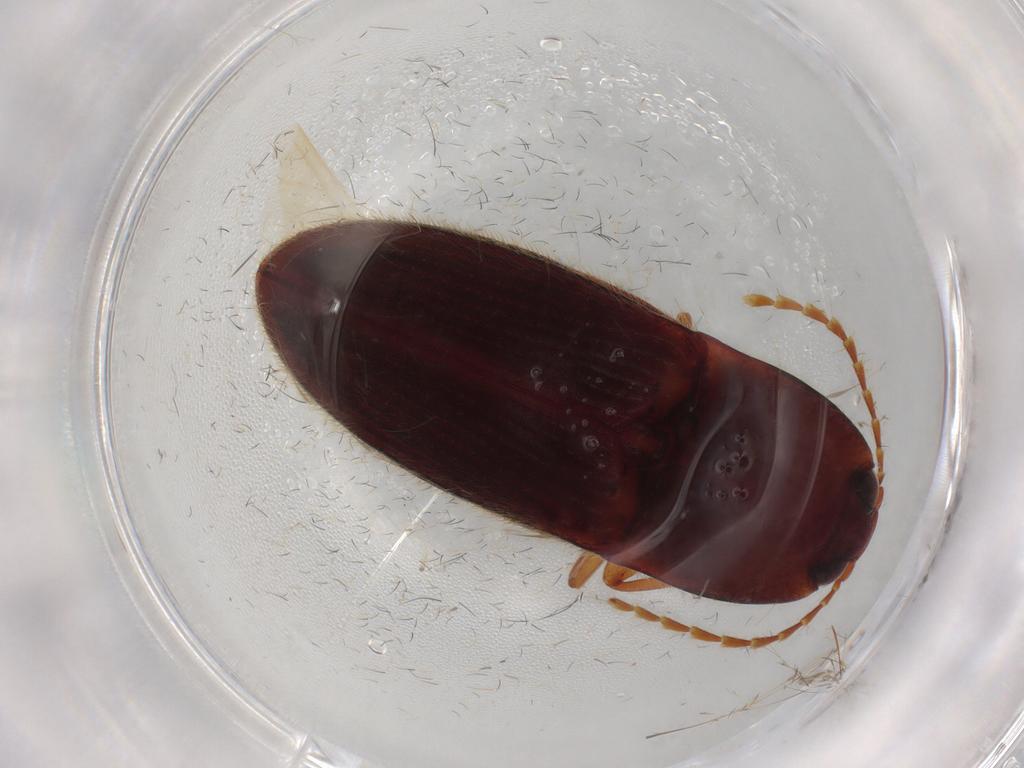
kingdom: Animalia
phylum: Arthropoda
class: Insecta
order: Coleoptera
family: Elateridae
